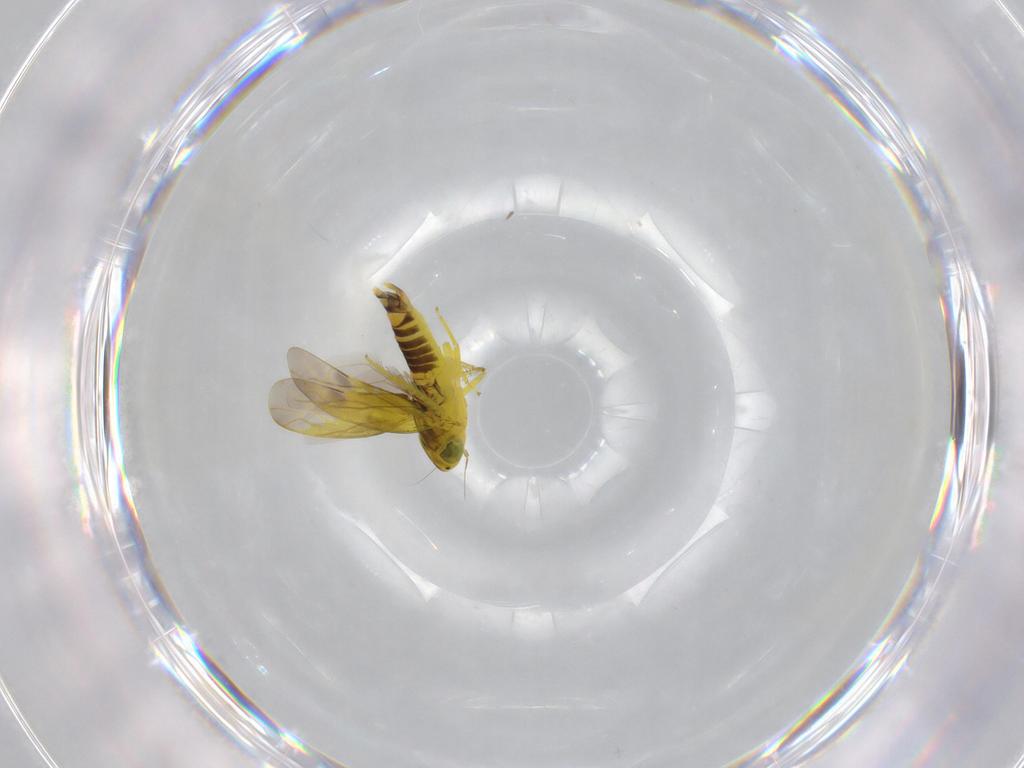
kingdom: Animalia
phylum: Arthropoda
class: Insecta
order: Hemiptera
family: Cicadellidae
